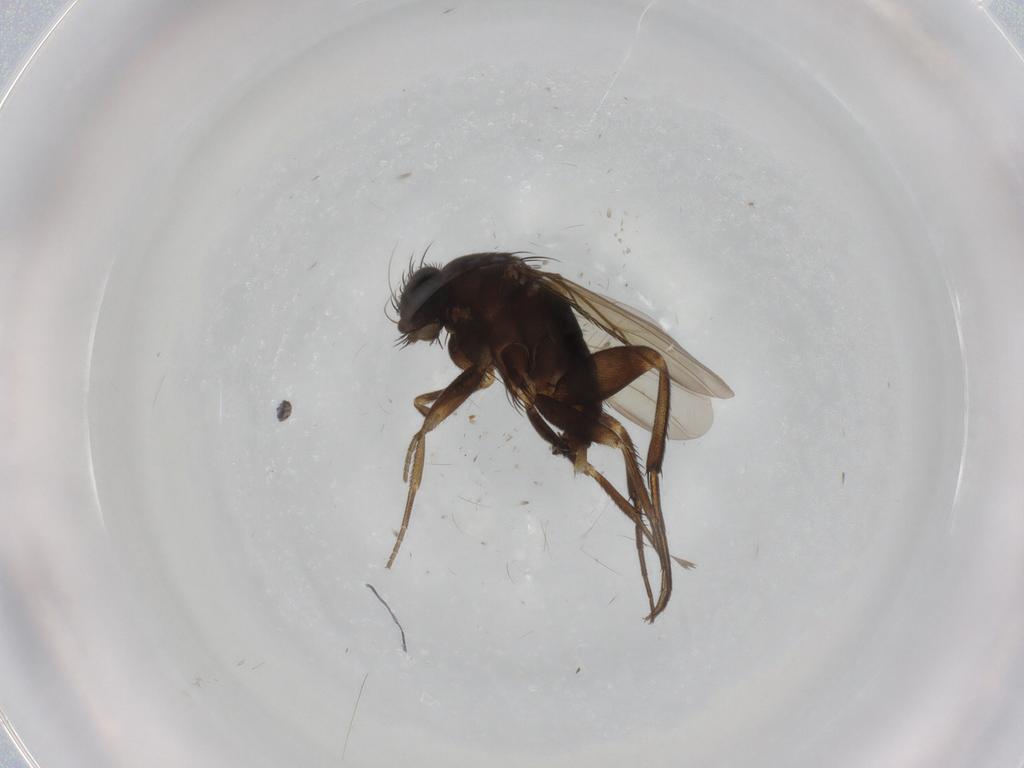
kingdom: Animalia
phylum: Arthropoda
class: Insecta
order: Diptera
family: Phoridae
